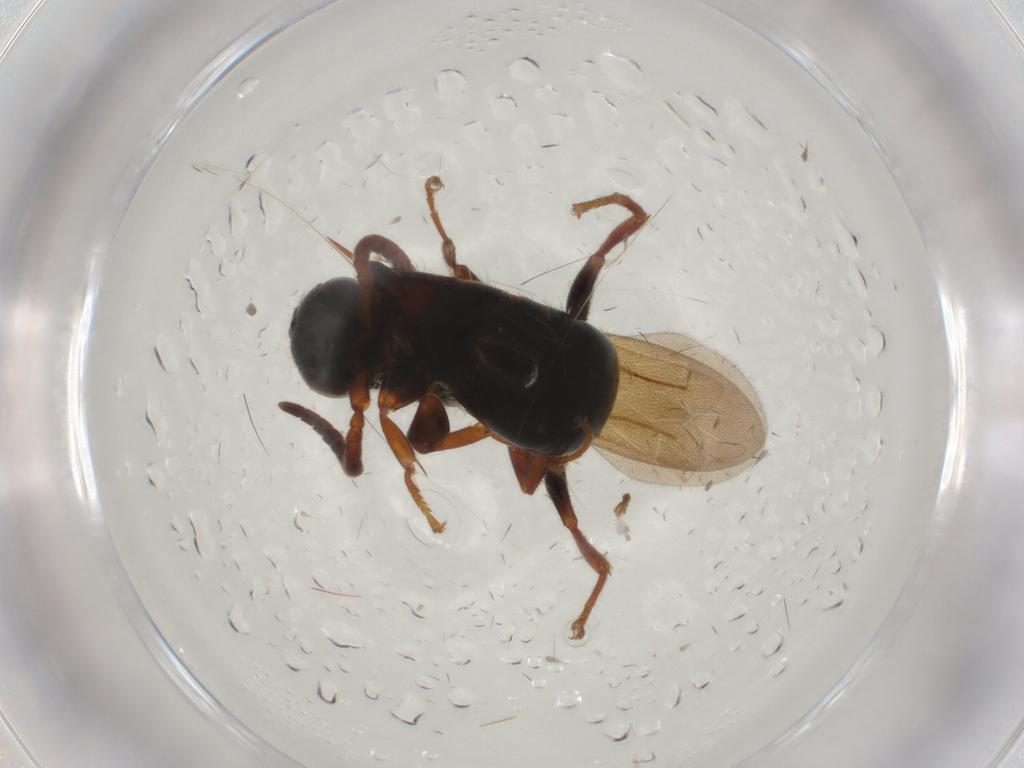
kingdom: Animalia
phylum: Arthropoda
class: Insecta
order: Hymenoptera
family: Bethylidae
